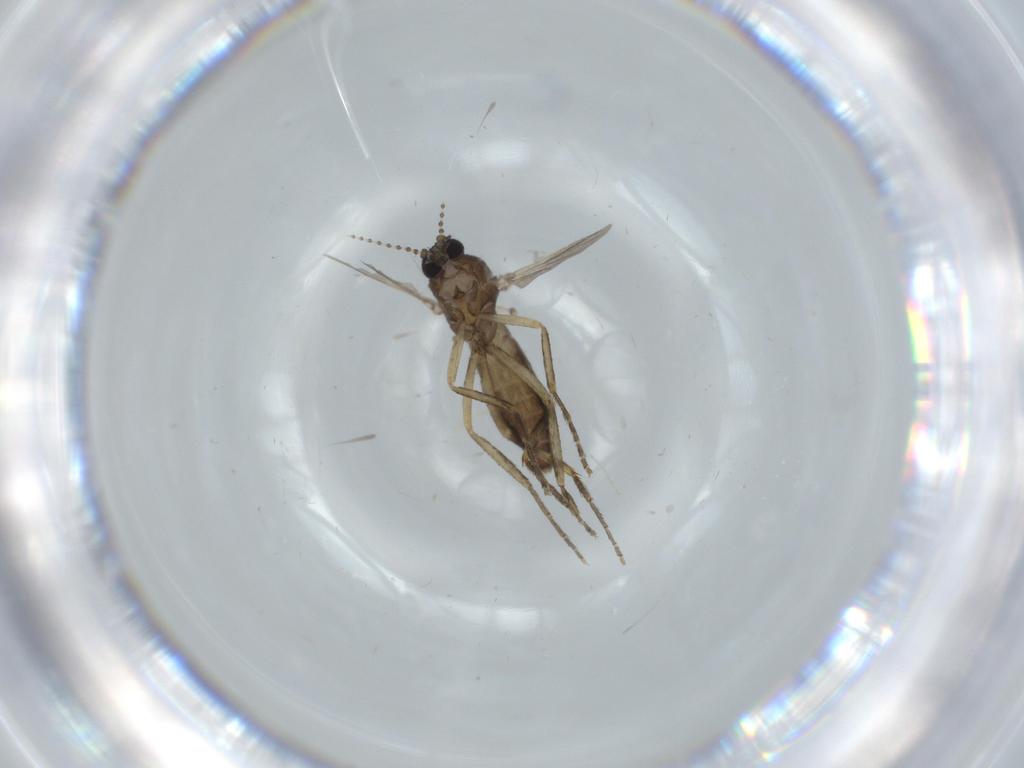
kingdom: Animalia
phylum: Arthropoda
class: Insecta
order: Diptera
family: Ceratopogonidae
